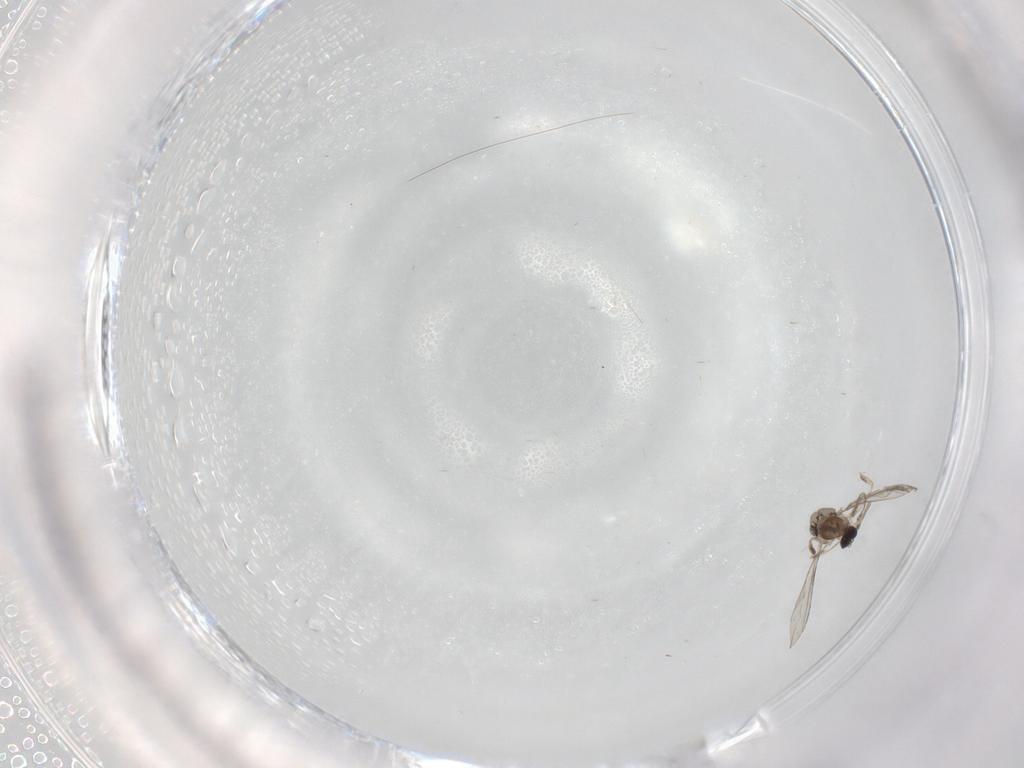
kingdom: Animalia
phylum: Arthropoda
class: Insecta
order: Diptera
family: Cecidomyiidae
